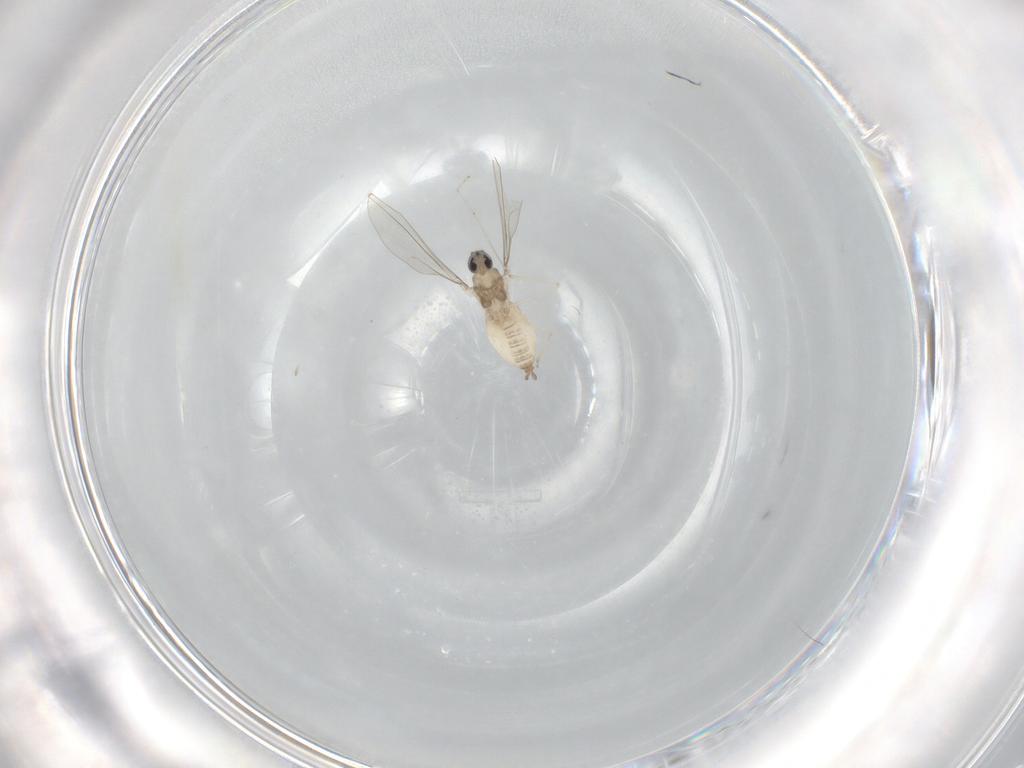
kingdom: Animalia
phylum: Arthropoda
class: Insecta
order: Diptera
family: Cecidomyiidae
